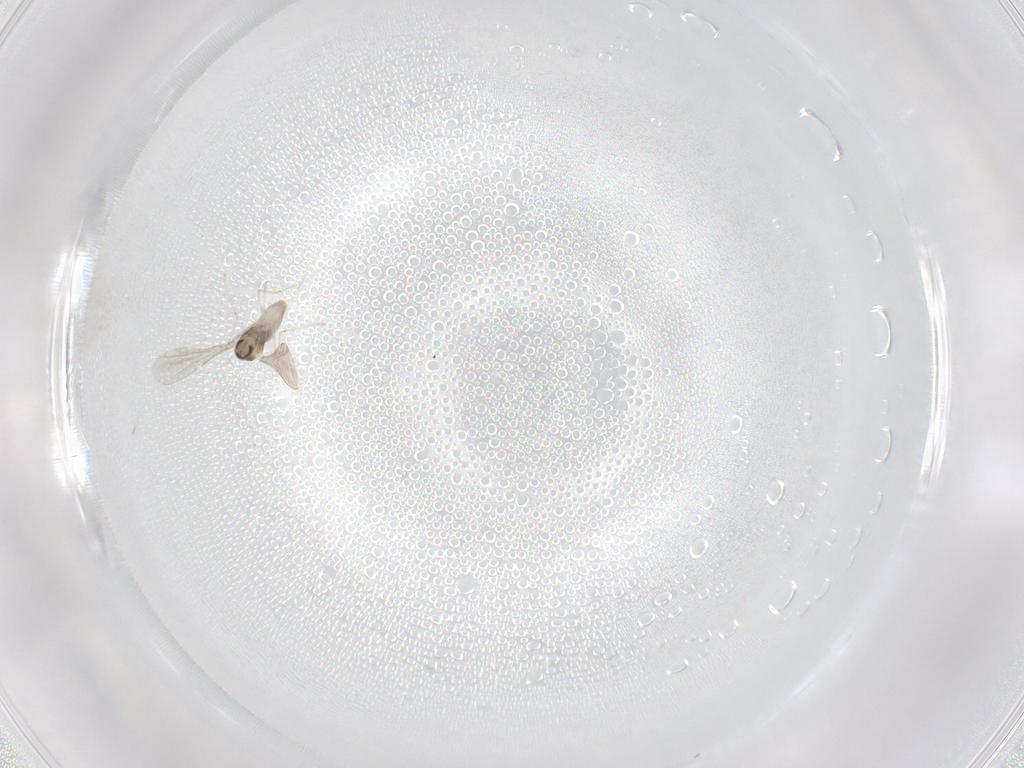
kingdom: Animalia
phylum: Arthropoda
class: Insecta
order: Diptera
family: Cecidomyiidae
